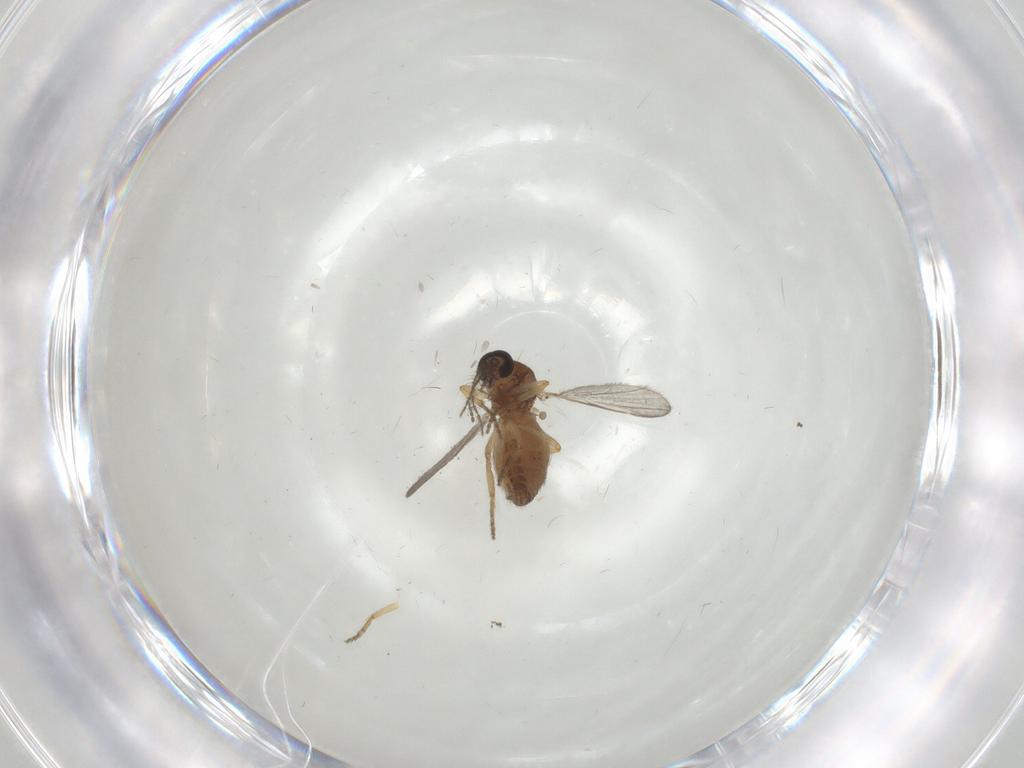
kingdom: Animalia
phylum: Arthropoda
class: Insecta
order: Diptera
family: Ceratopogonidae
